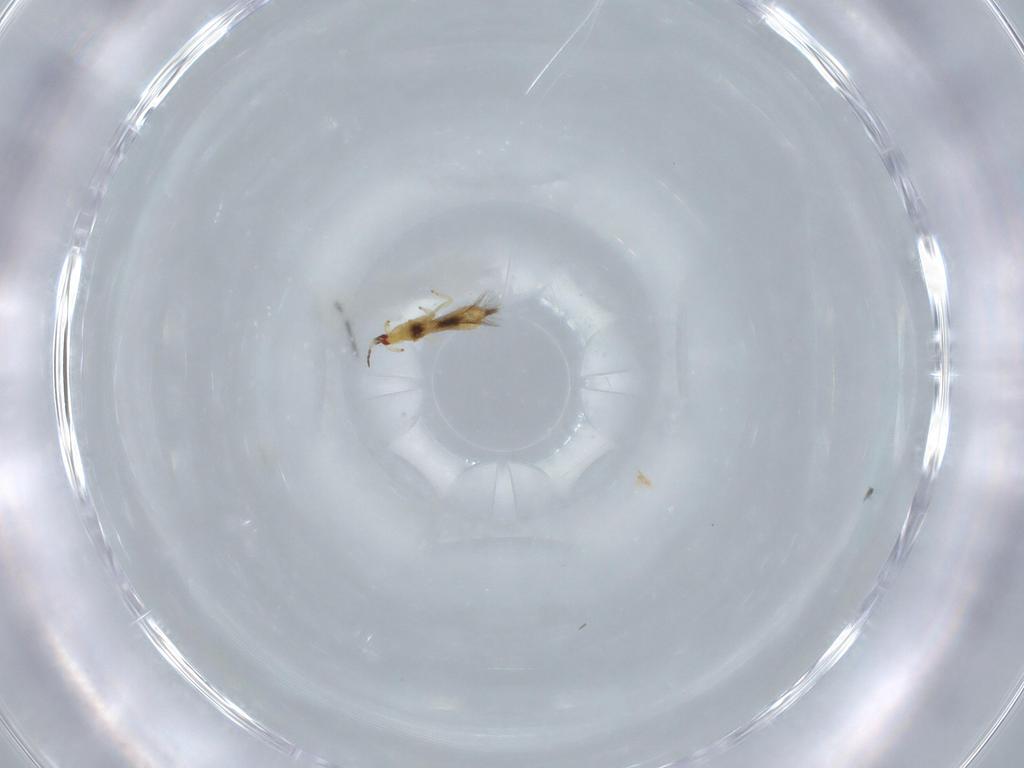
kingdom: Animalia
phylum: Arthropoda
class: Insecta
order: Thysanoptera
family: Phlaeothripidae
